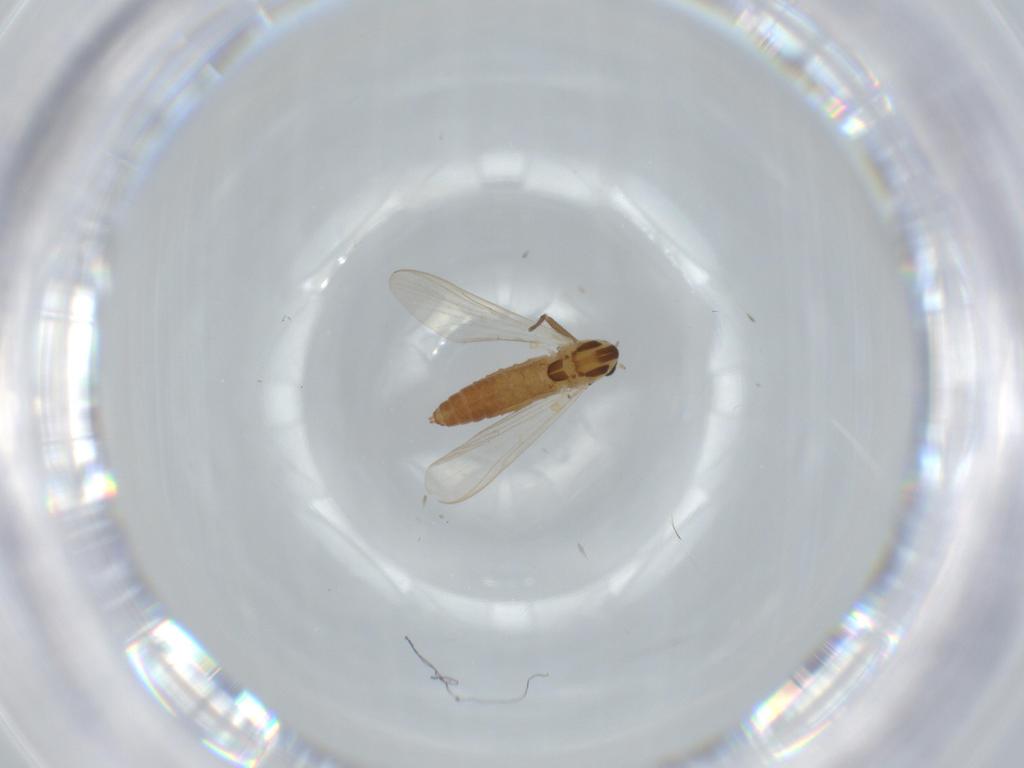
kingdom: Animalia
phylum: Arthropoda
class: Insecta
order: Diptera
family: Chironomidae
